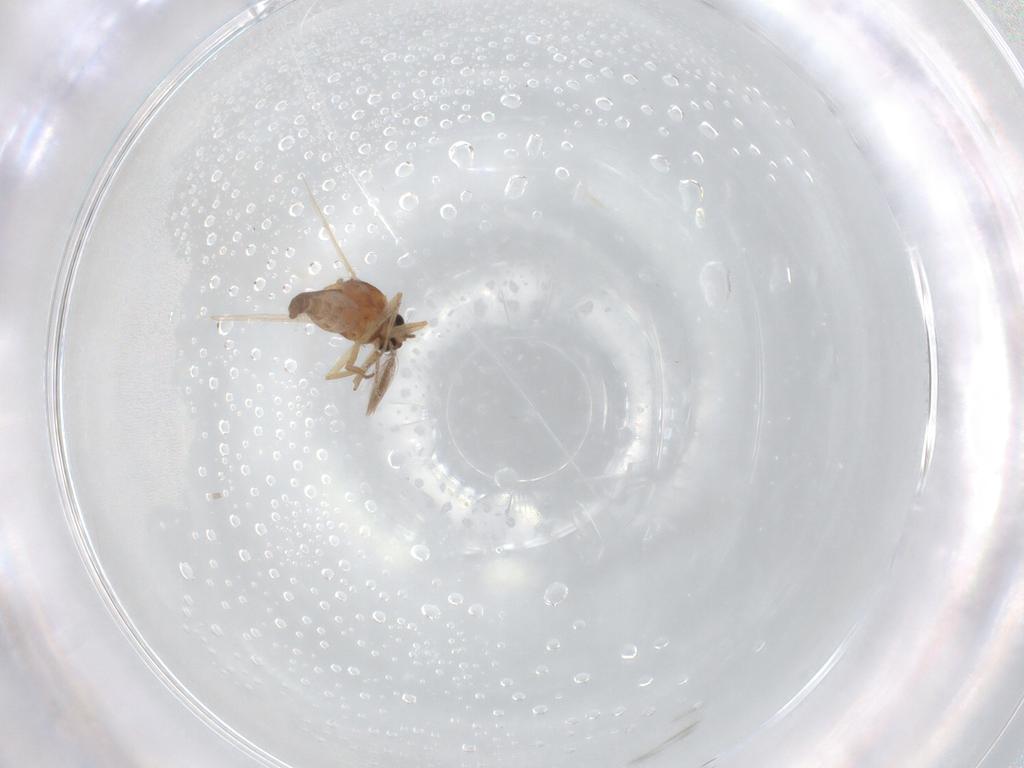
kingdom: Animalia
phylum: Arthropoda
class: Insecta
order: Diptera
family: Ceratopogonidae
